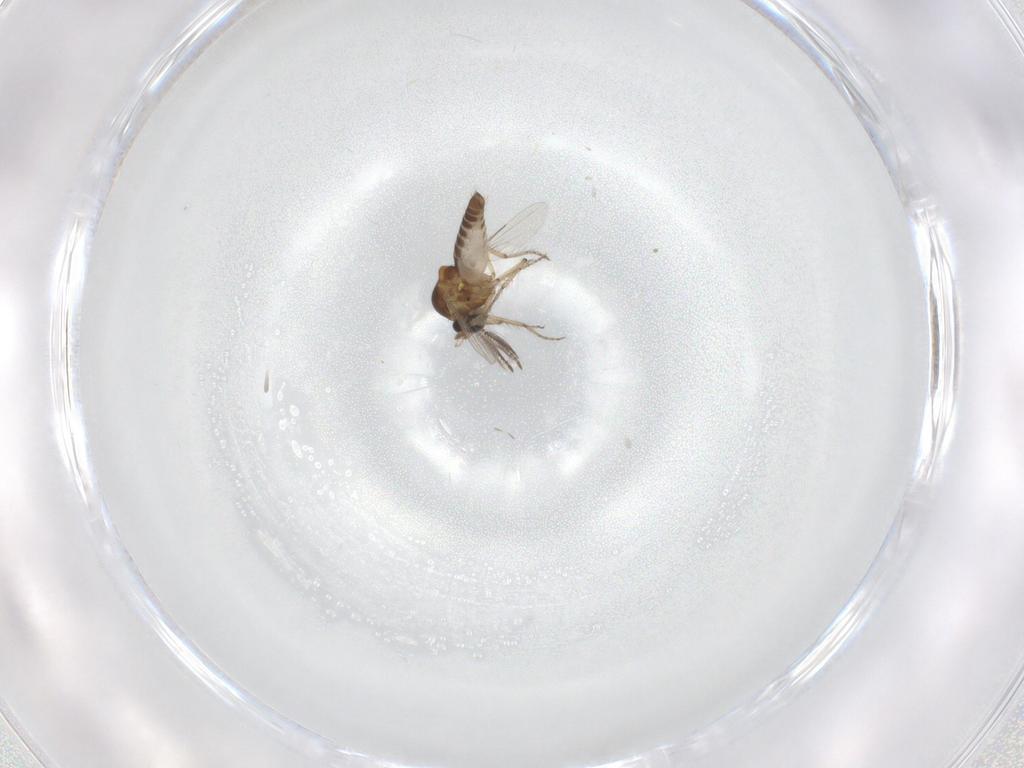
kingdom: Animalia
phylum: Arthropoda
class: Insecta
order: Diptera
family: Ceratopogonidae
